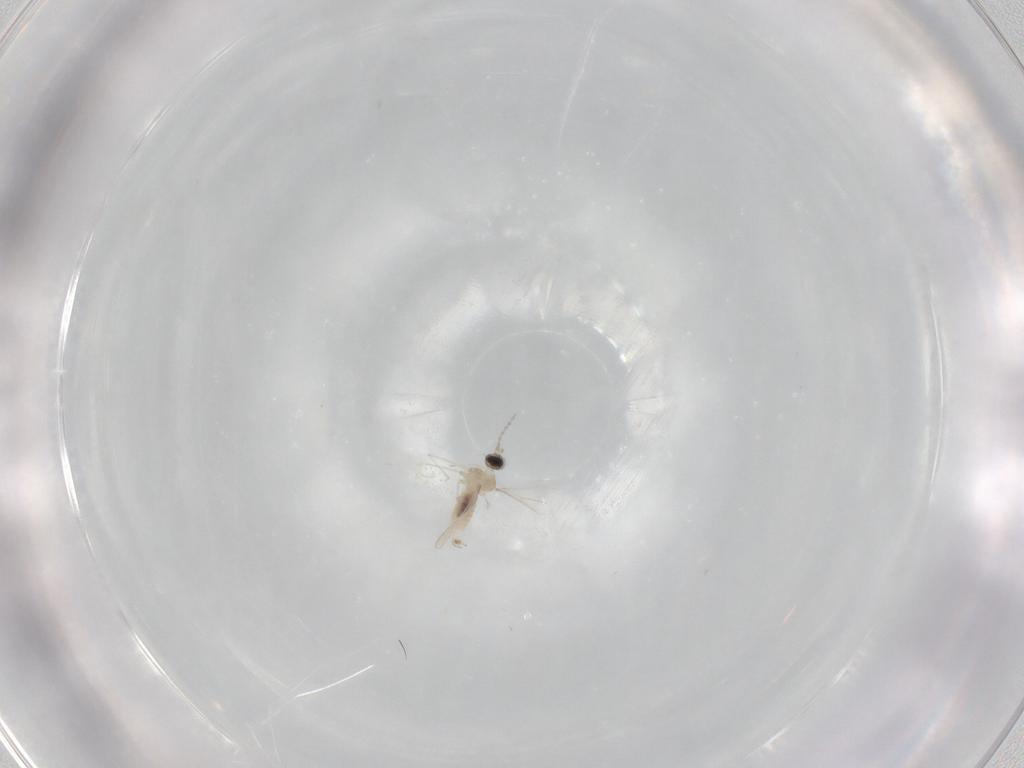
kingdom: Animalia
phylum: Arthropoda
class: Insecta
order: Diptera
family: Cecidomyiidae
